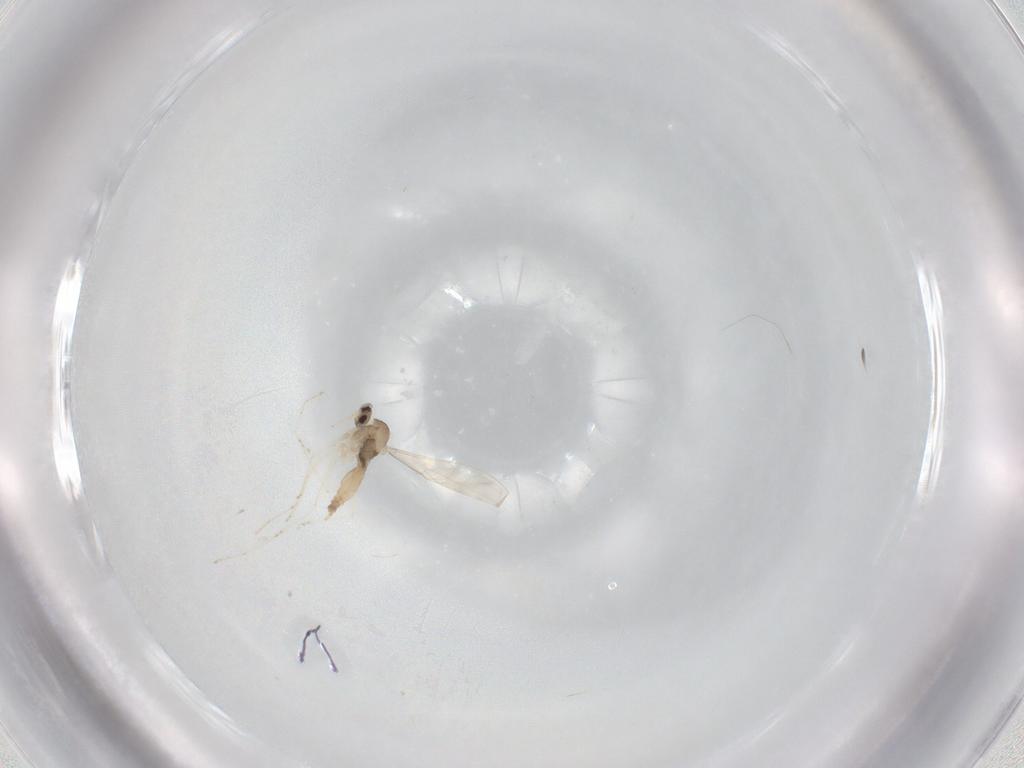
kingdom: Animalia
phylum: Arthropoda
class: Insecta
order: Diptera
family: Cecidomyiidae
